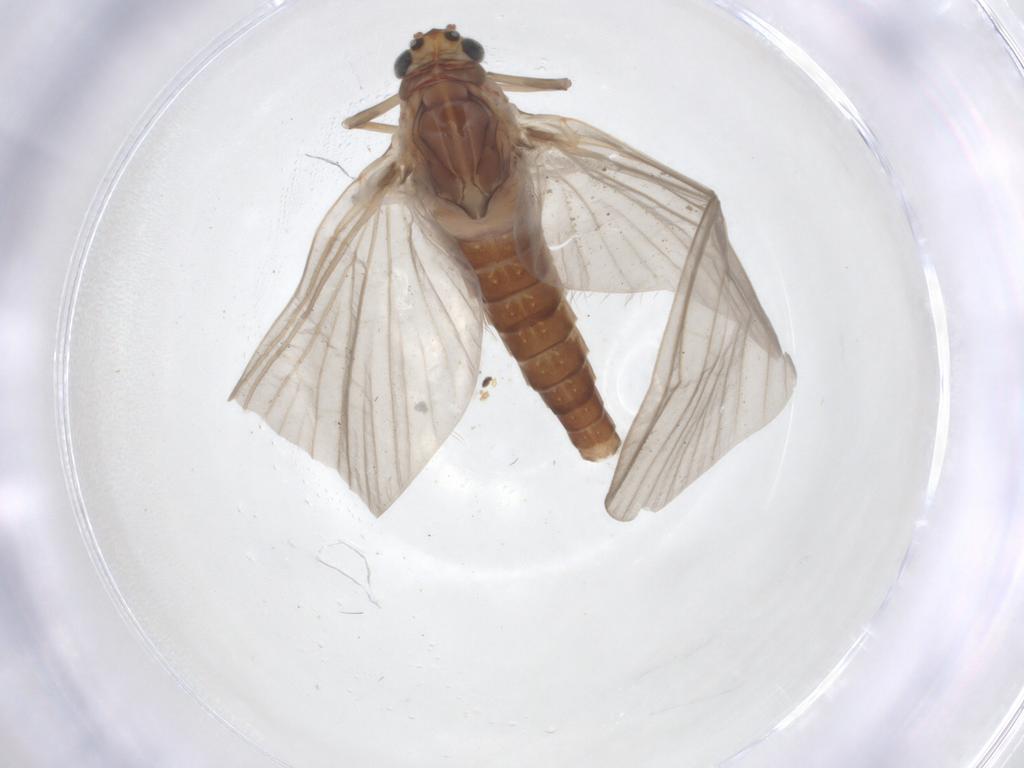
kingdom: Animalia
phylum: Arthropoda
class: Insecta
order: Ephemeroptera
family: Baetidae
